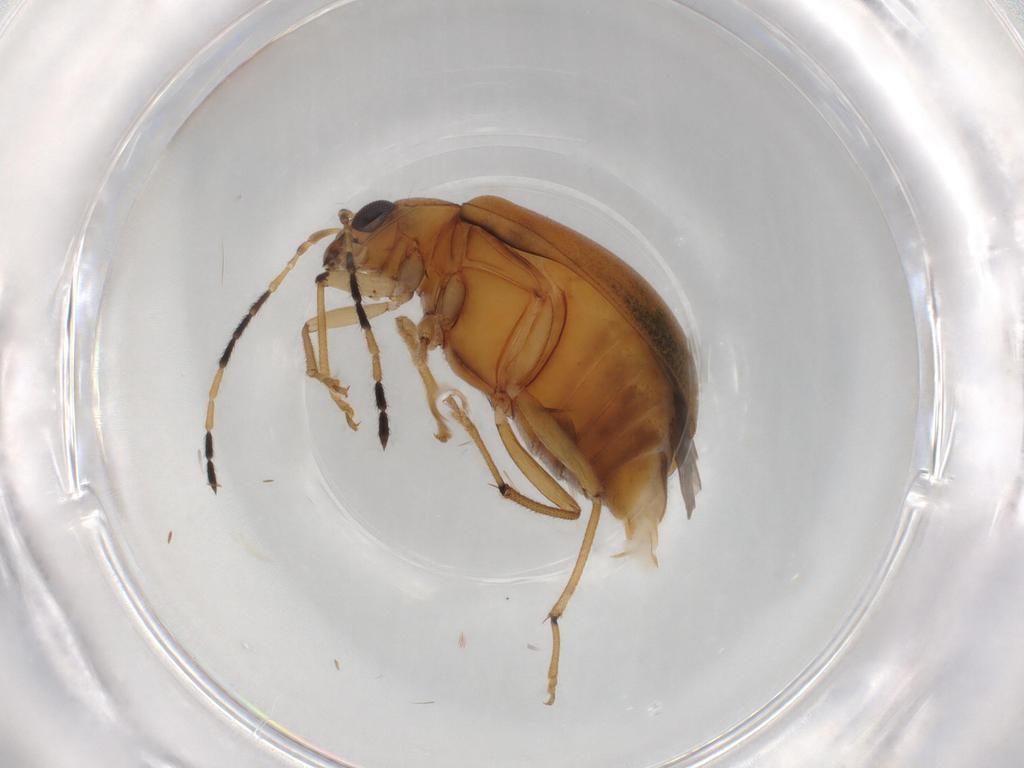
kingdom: Animalia
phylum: Arthropoda
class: Insecta
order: Coleoptera
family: Chrysomelidae
